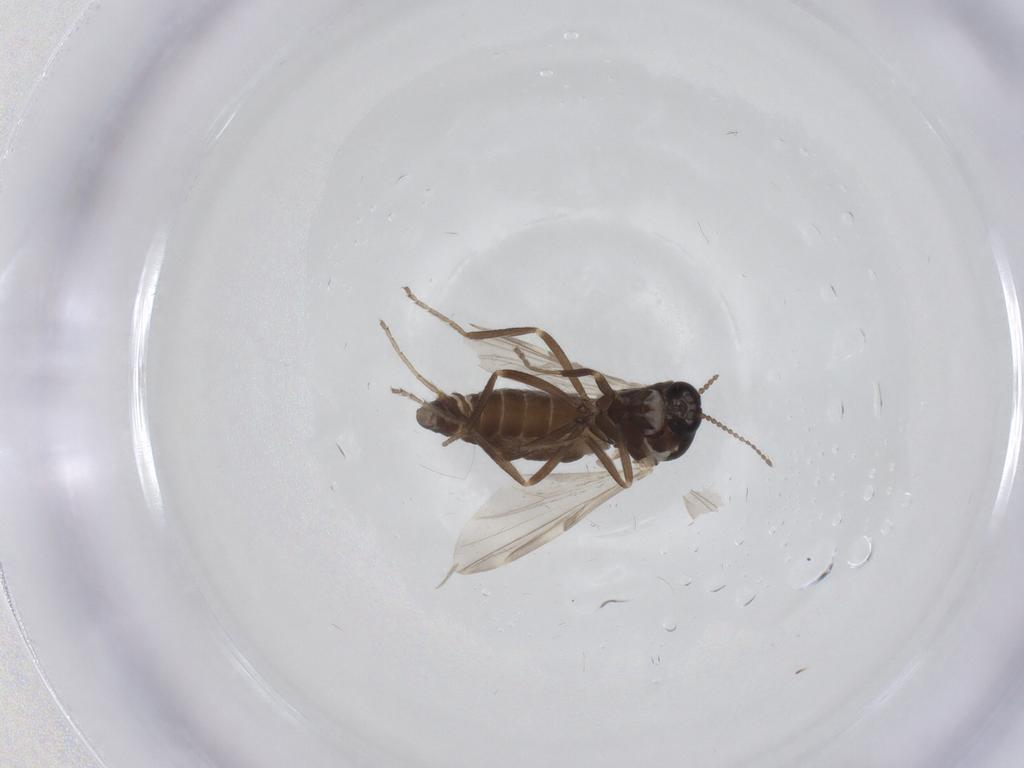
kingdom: Animalia
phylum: Arthropoda
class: Insecta
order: Diptera
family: Ceratopogonidae
